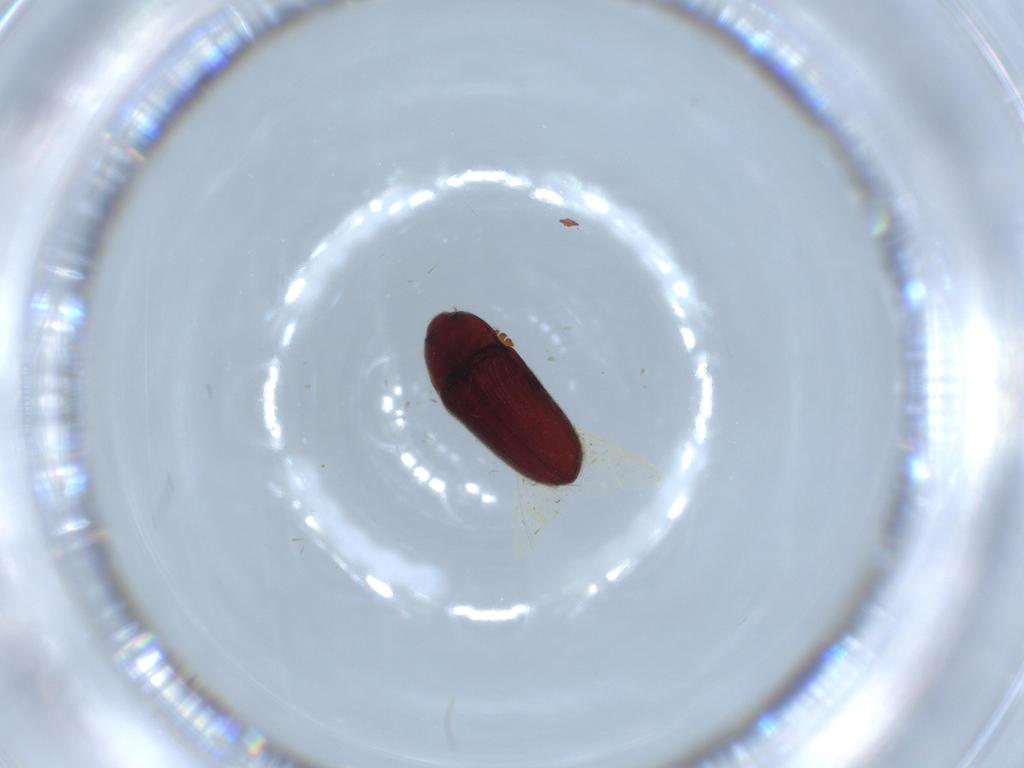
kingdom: Animalia
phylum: Arthropoda
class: Insecta
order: Coleoptera
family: Throscidae
